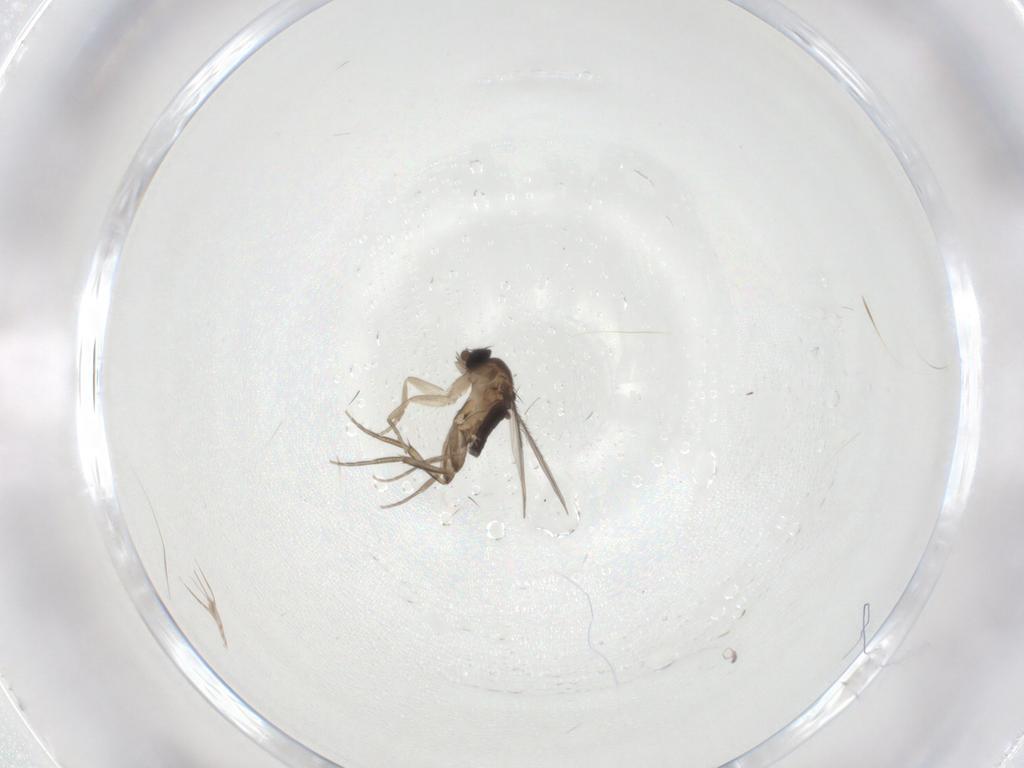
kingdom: Animalia
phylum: Arthropoda
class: Insecta
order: Diptera
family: Phoridae
